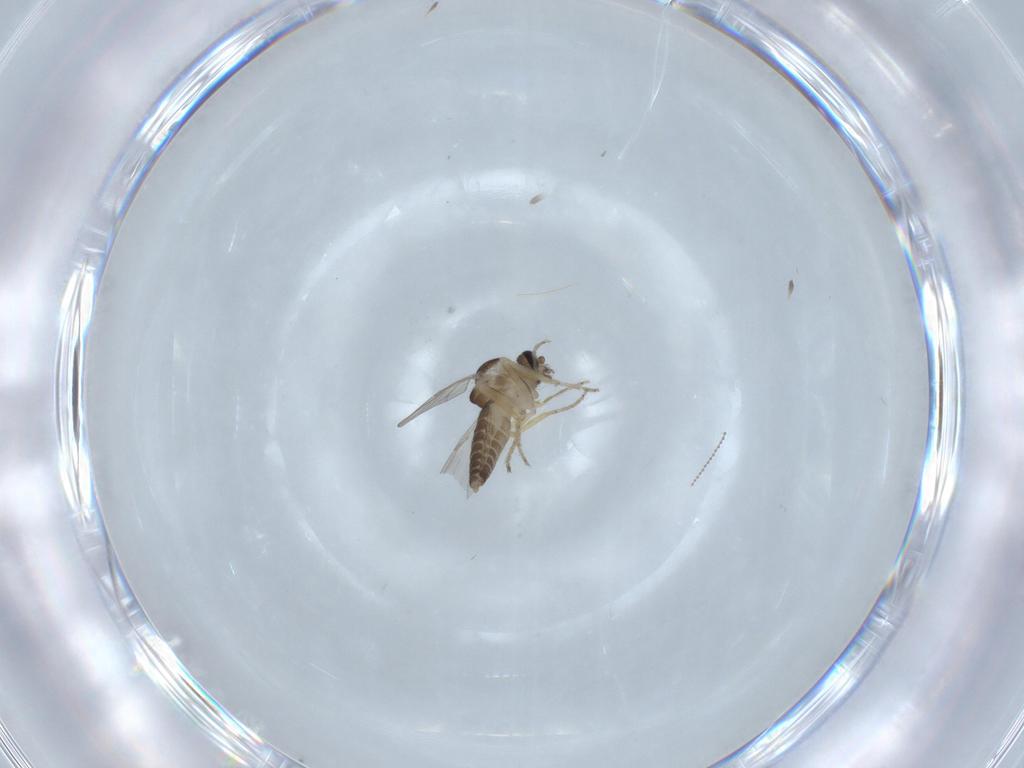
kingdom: Animalia
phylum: Arthropoda
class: Insecta
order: Diptera
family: Ceratopogonidae
